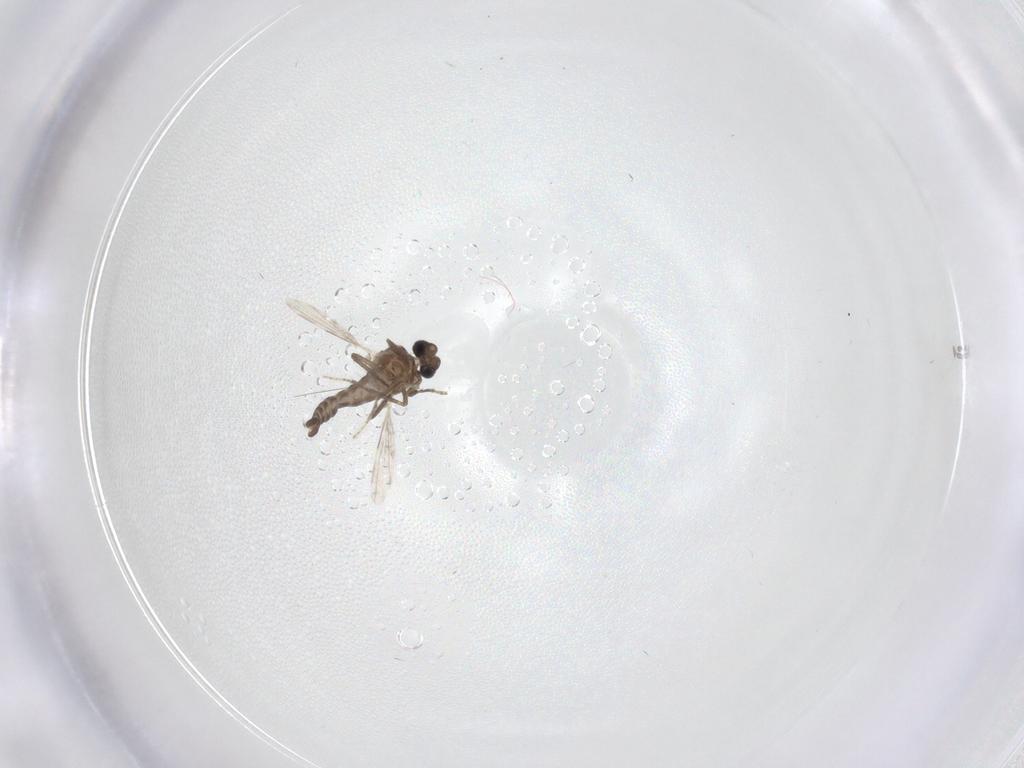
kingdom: Animalia
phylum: Arthropoda
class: Insecta
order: Diptera
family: Ceratopogonidae
